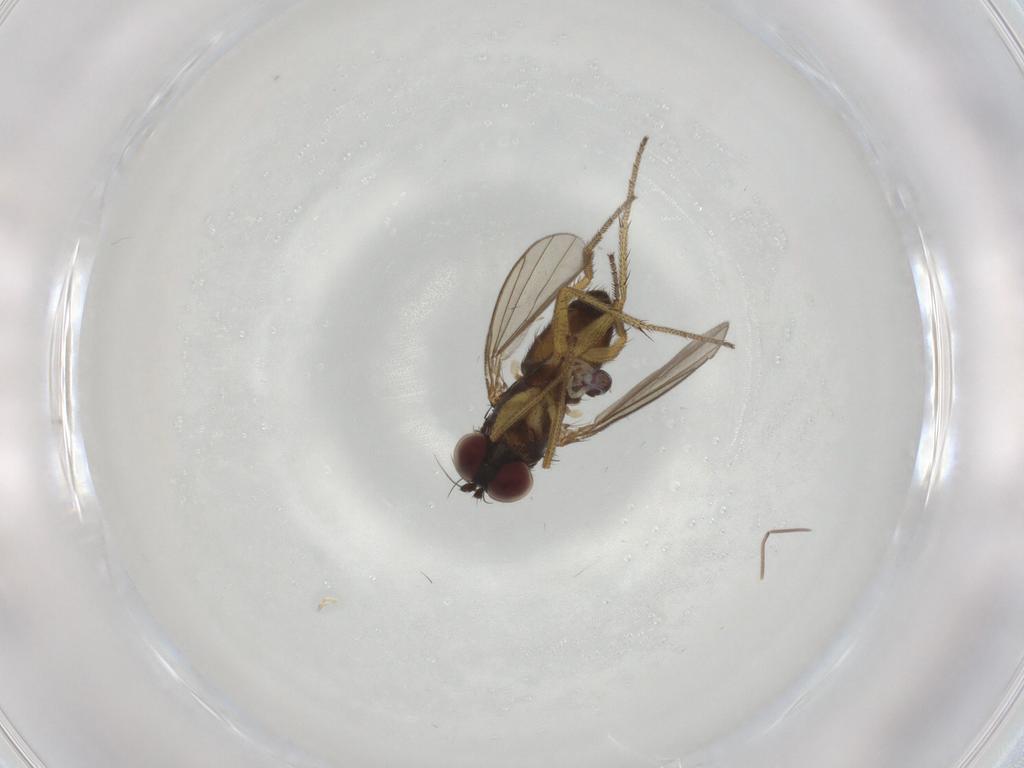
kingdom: Animalia
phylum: Arthropoda
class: Insecta
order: Diptera
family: Dolichopodidae
